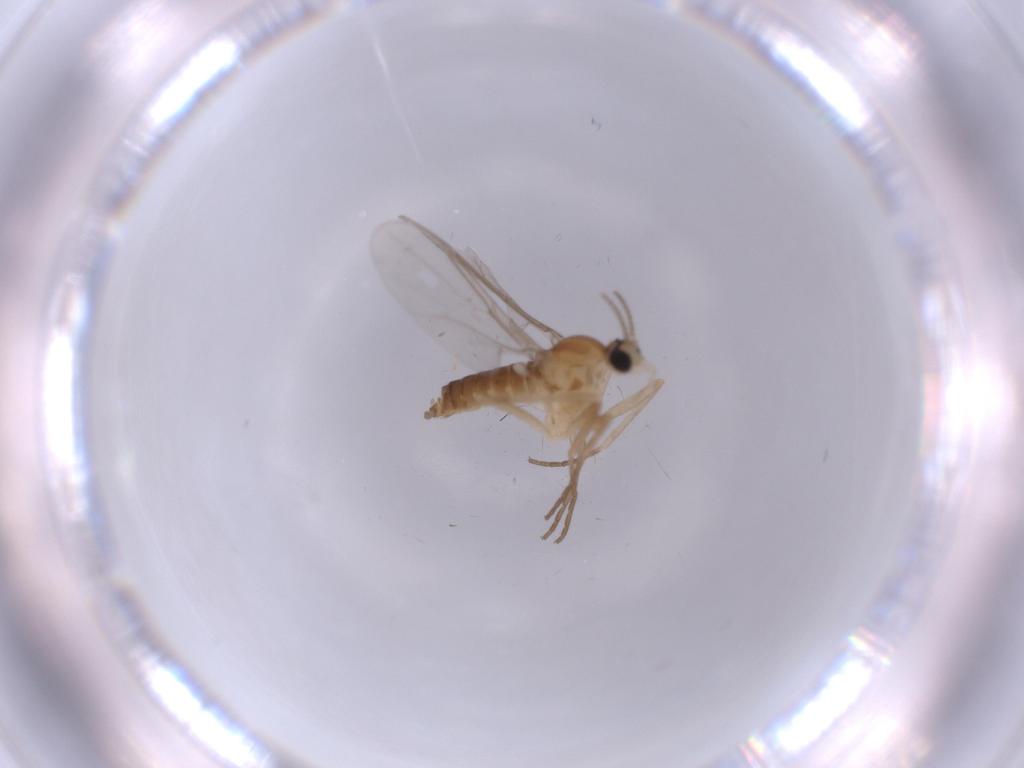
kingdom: Animalia
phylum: Arthropoda
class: Insecta
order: Diptera
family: Cecidomyiidae
